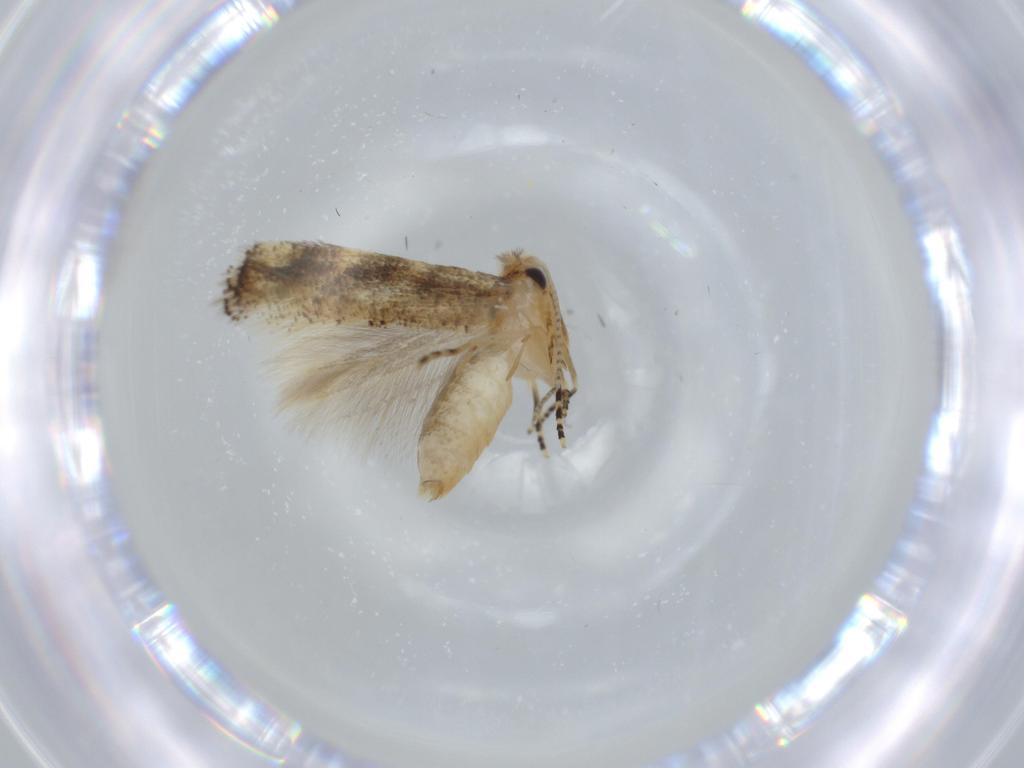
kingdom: Animalia
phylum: Arthropoda
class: Insecta
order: Lepidoptera
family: Bucculatricidae
